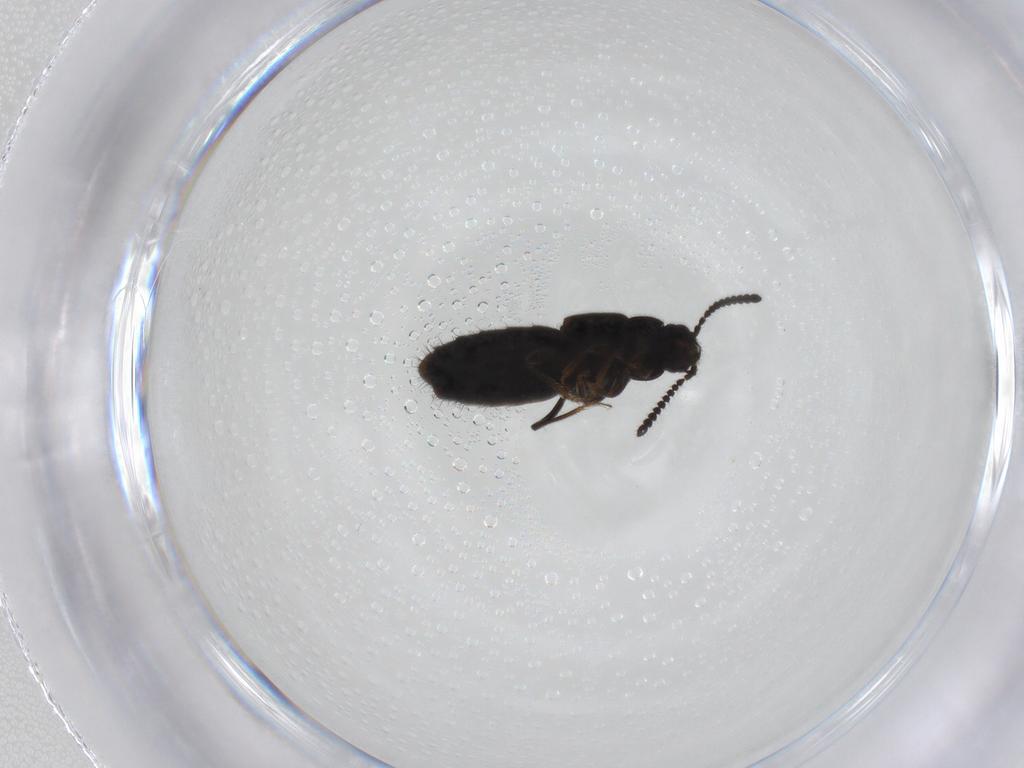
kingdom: Animalia
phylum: Arthropoda
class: Insecta
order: Coleoptera
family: Staphylinidae
